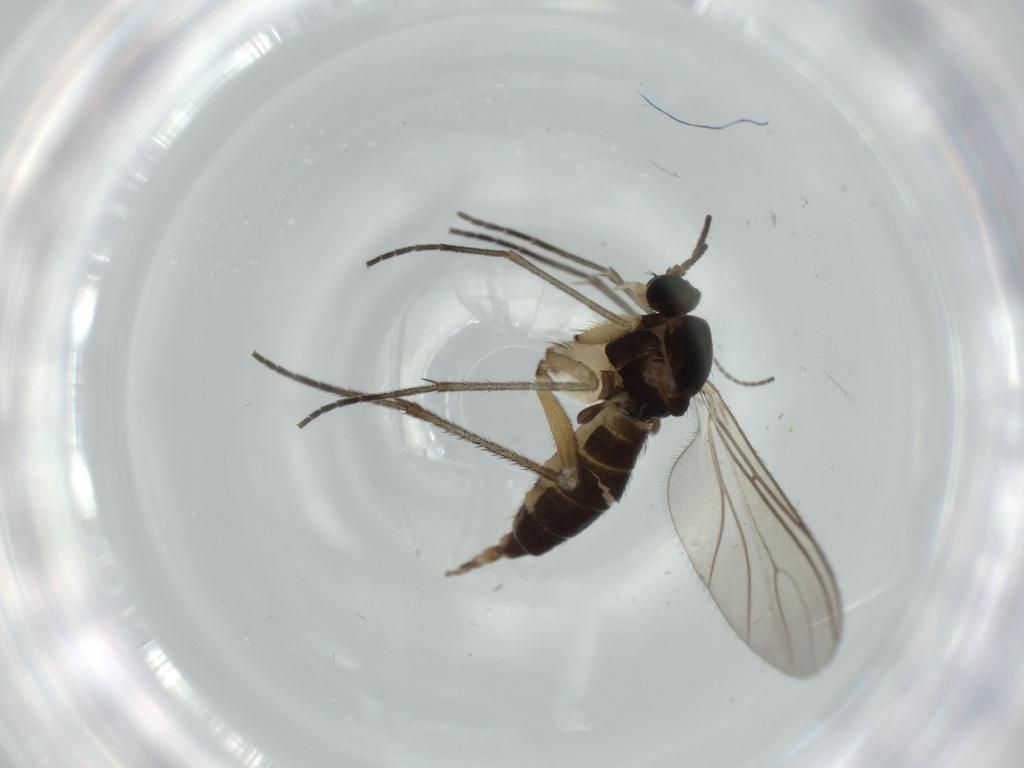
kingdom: Animalia
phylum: Arthropoda
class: Insecta
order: Diptera
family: Sciaridae
